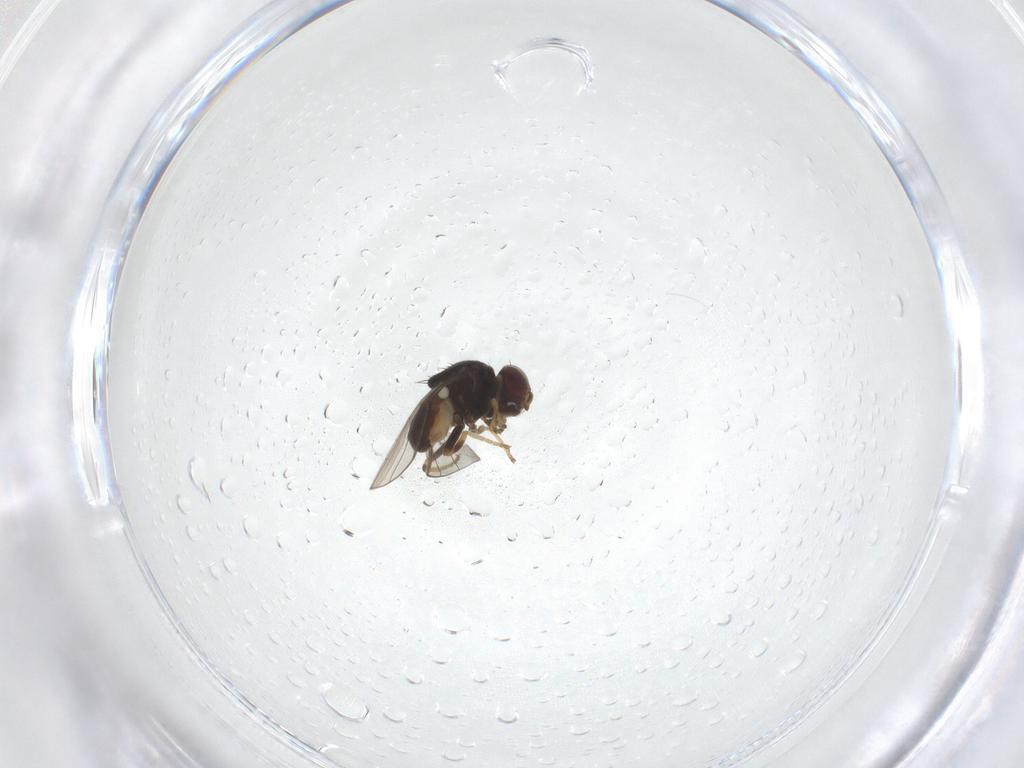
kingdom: Animalia
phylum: Arthropoda
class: Insecta
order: Diptera
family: Chloropidae
